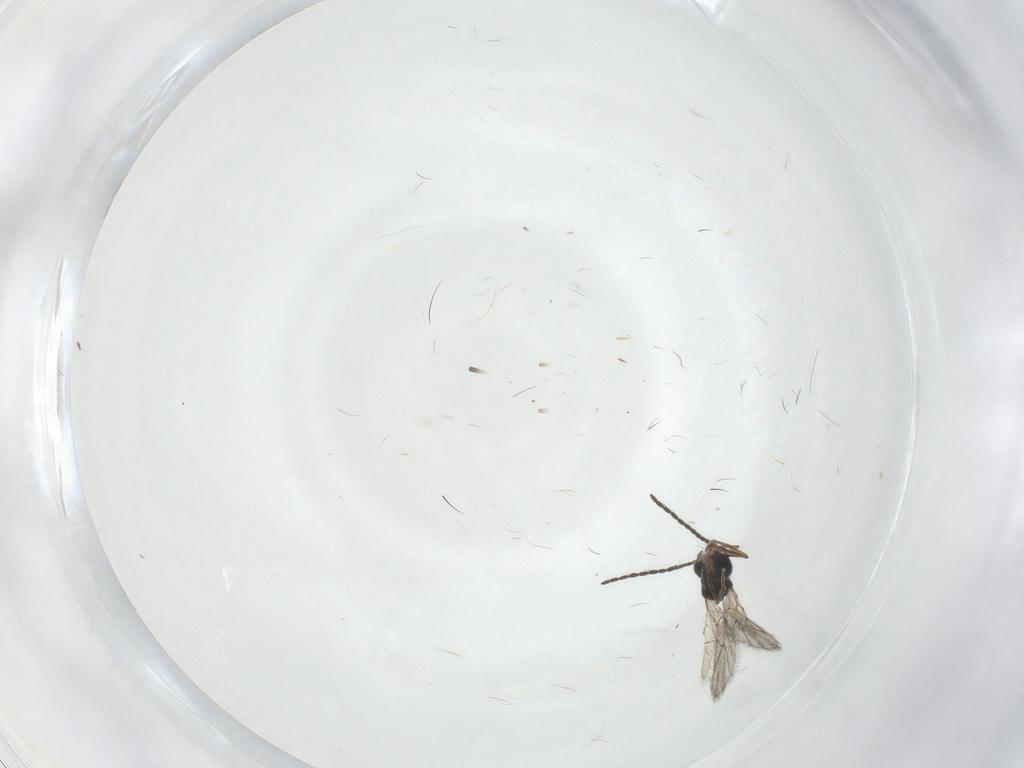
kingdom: Animalia
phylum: Arthropoda
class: Insecta
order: Hymenoptera
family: Figitidae
